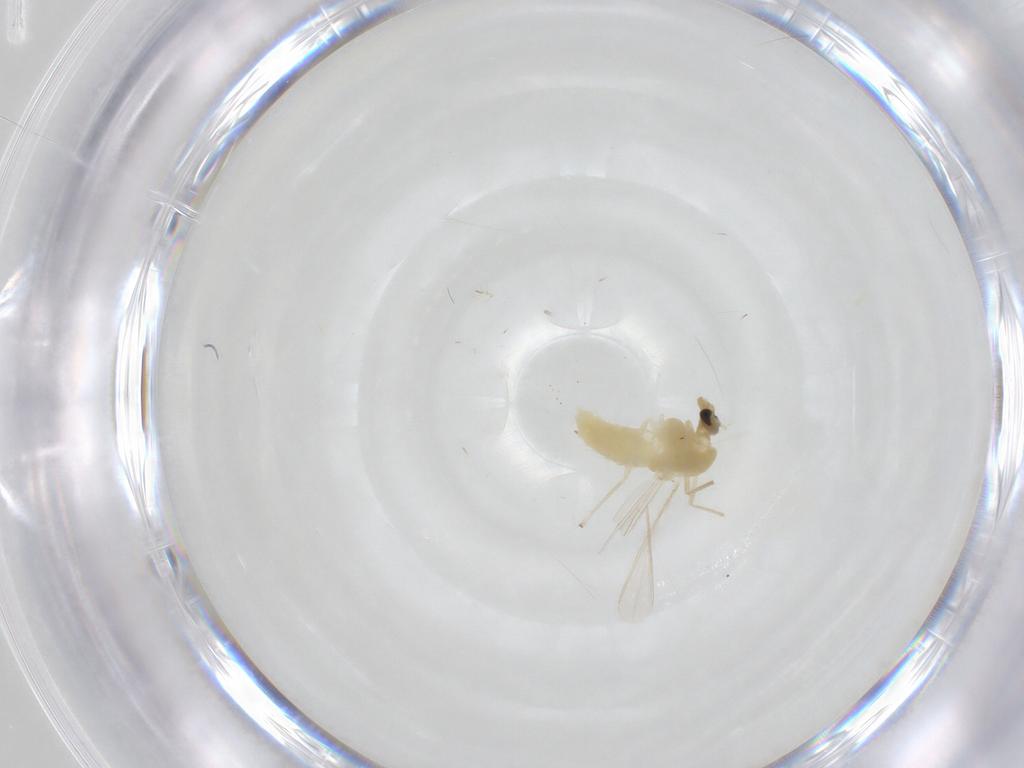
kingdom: Animalia
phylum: Arthropoda
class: Insecta
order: Diptera
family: Chironomidae
